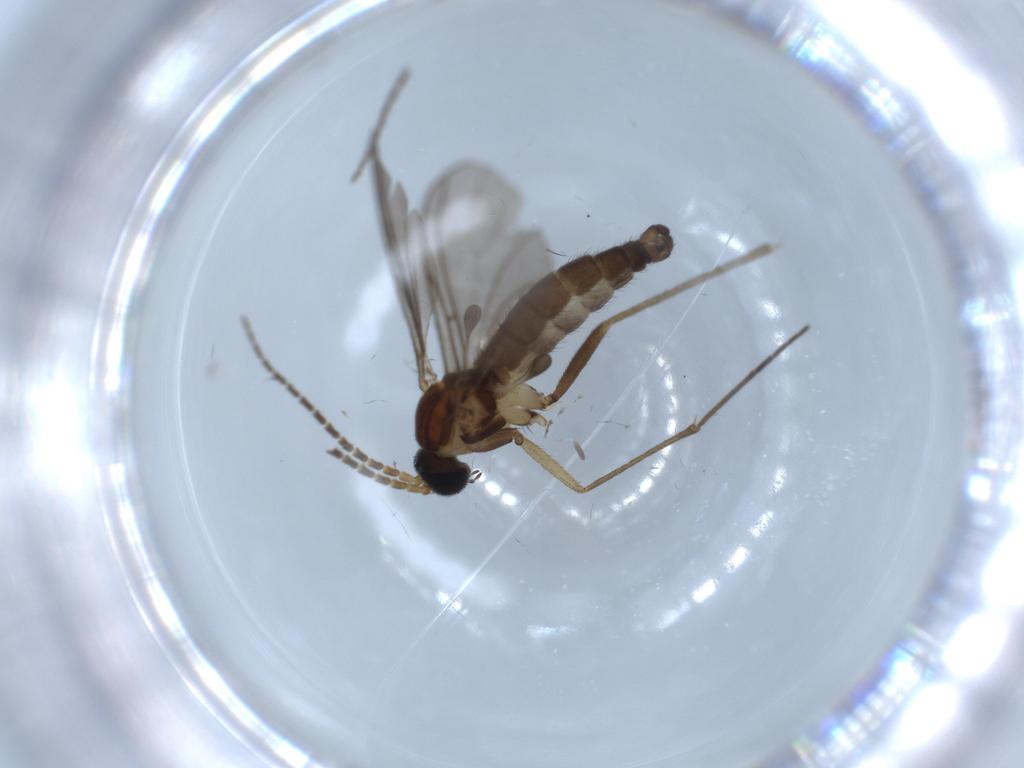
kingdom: Animalia
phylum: Arthropoda
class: Insecta
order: Diptera
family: Sciaridae
